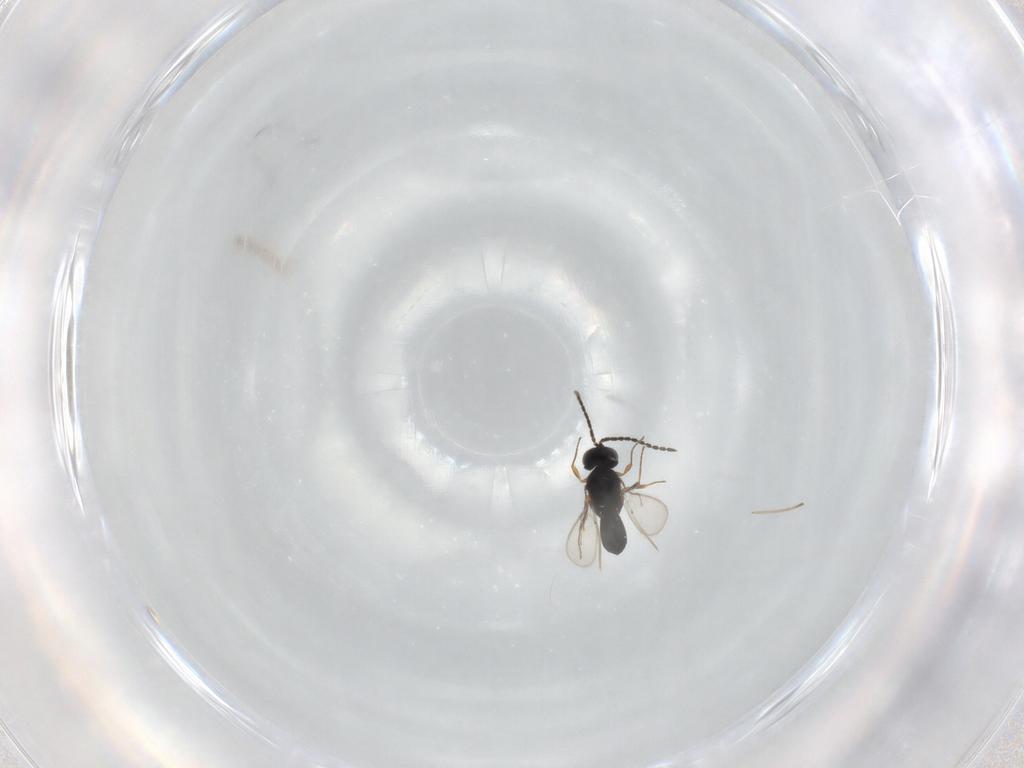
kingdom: Animalia
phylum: Arthropoda
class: Insecta
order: Hymenoptera
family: Scelionidae
